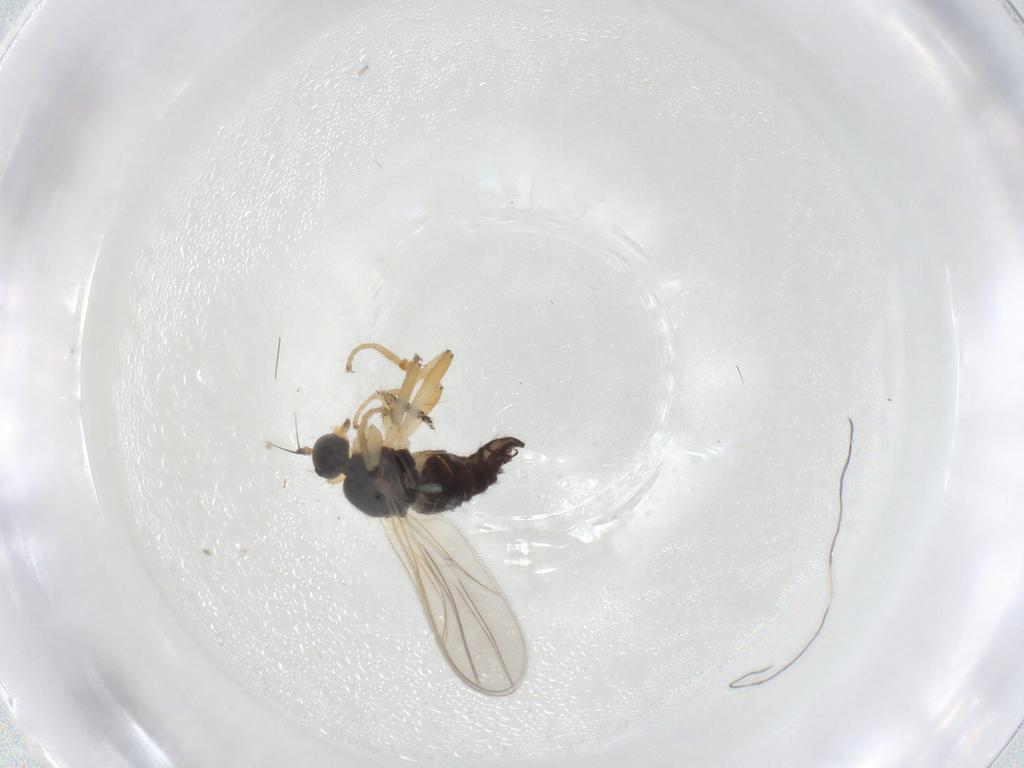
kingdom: Animalia
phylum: Arthropoda
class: Insecta
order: Diptera
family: Hybotidae
